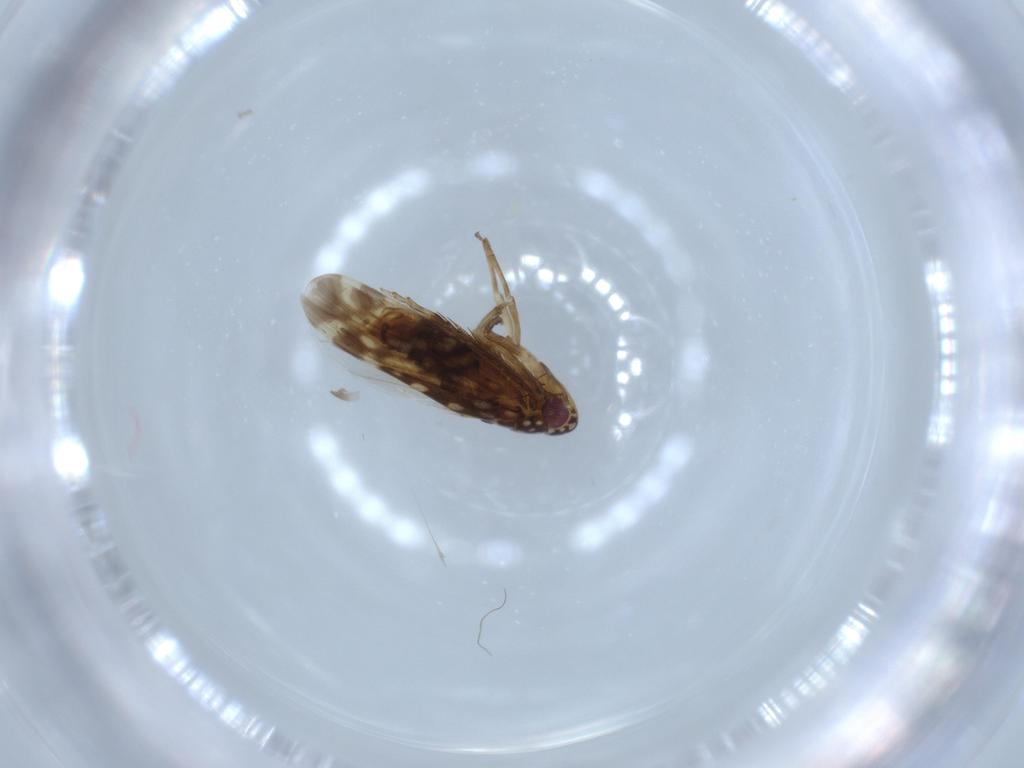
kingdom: Animalia
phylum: Arthropoda
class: Insecta
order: Hemiptera
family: Cicadellidae
